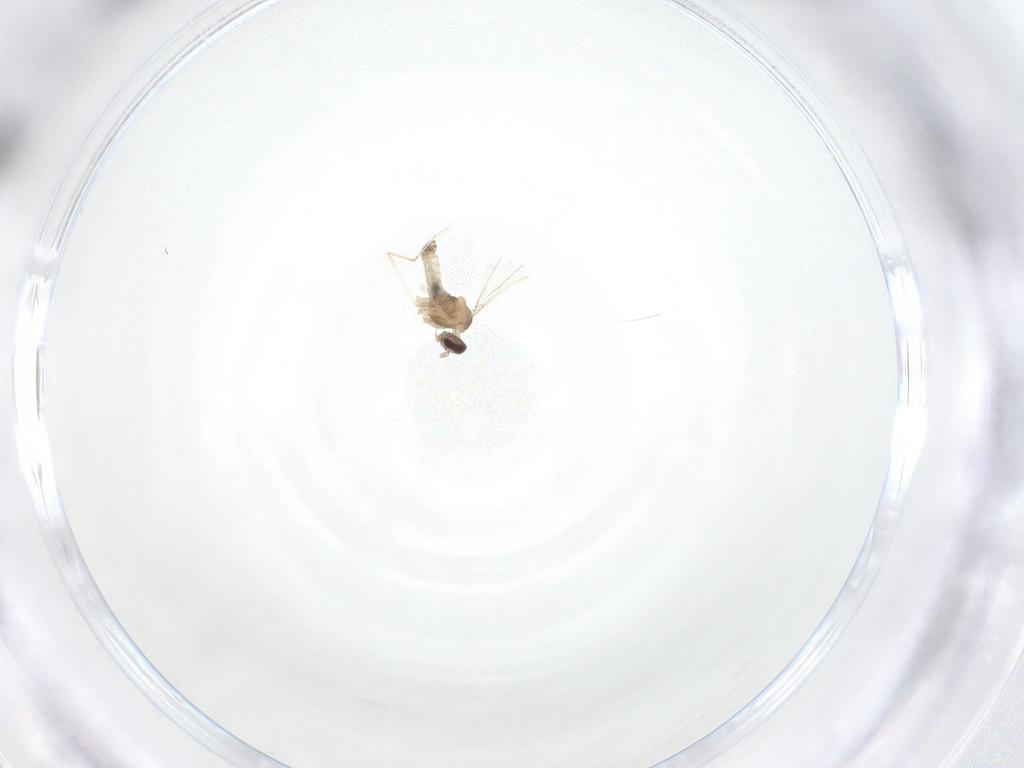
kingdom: Animalia
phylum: Arthropoda
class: Insecta
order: Diptera
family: Cecidomyiidae
